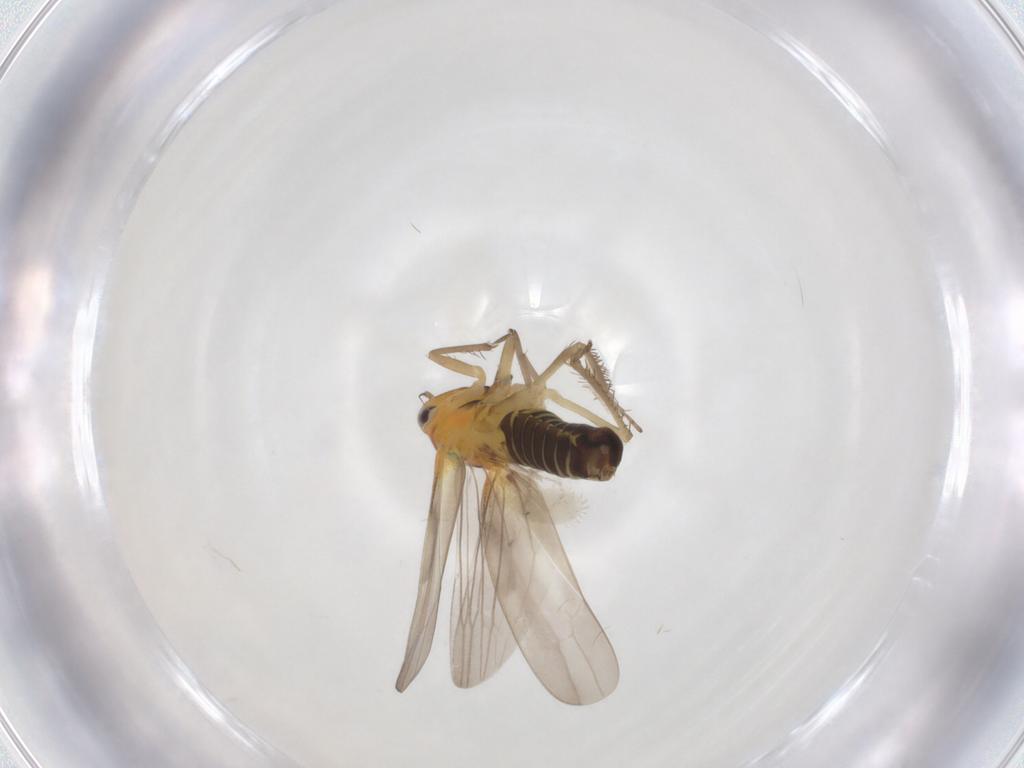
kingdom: Animalia
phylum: Arthropoda
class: Insecta
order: Hemiptera
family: Cicadellidae
